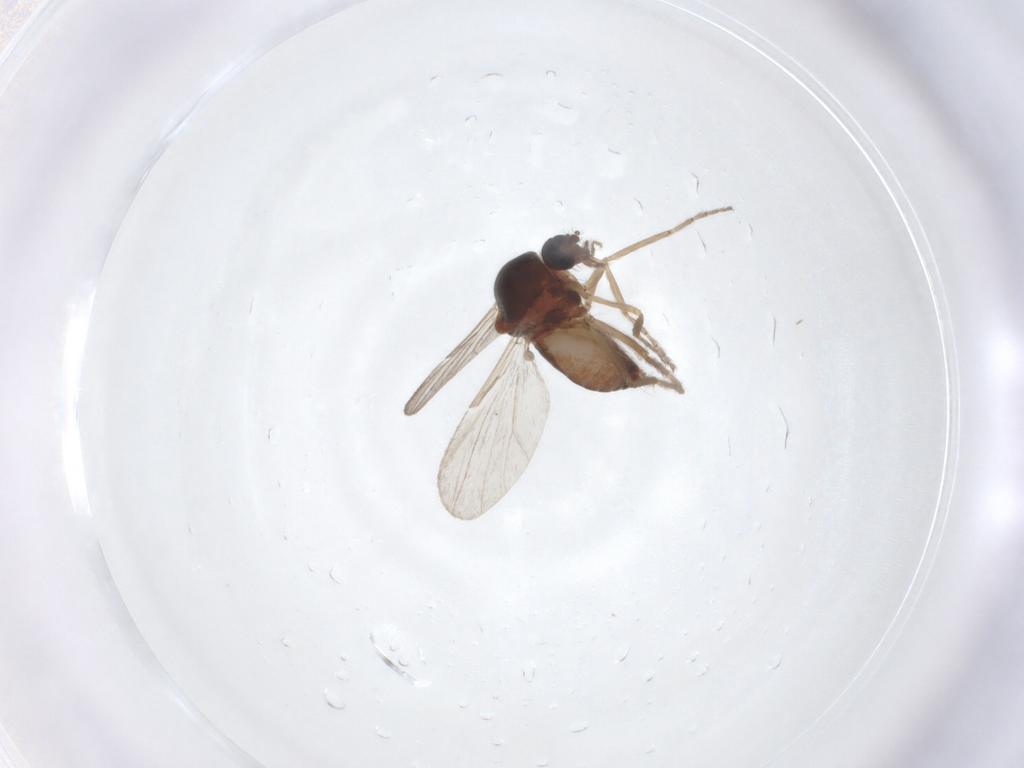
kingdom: Animalia
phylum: Arthropoda
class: Insecta
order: Diptera
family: Ceratopogonidae
